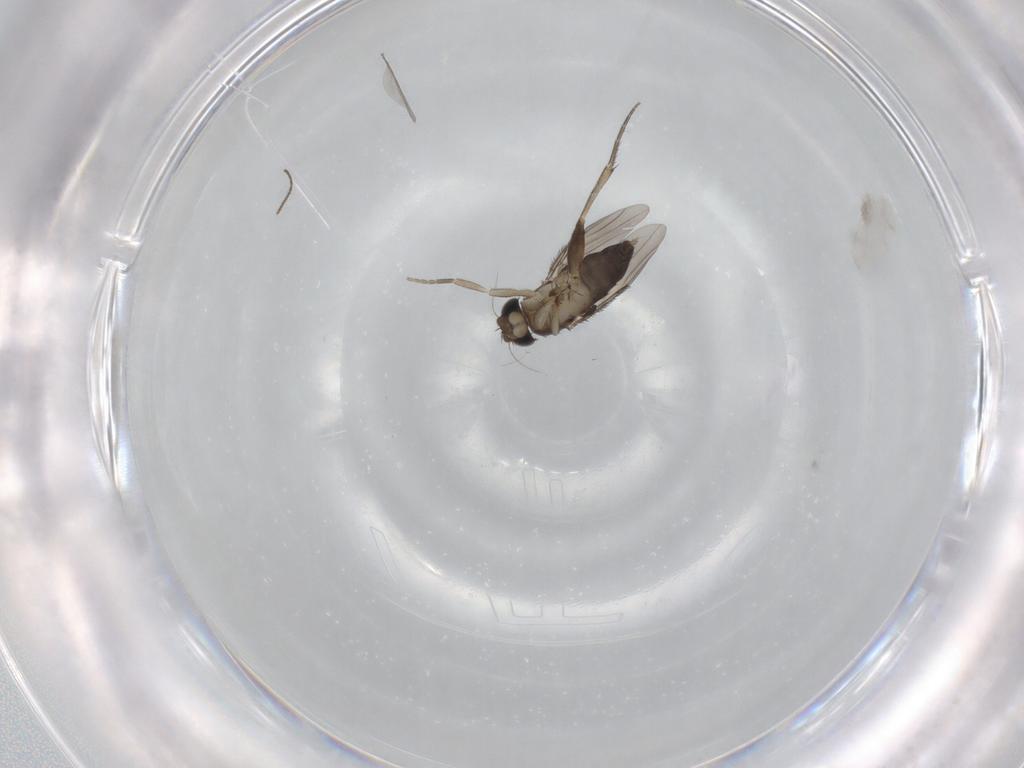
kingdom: Animalia
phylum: Arthropoda
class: Insecta
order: Diptera
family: Phoridae
